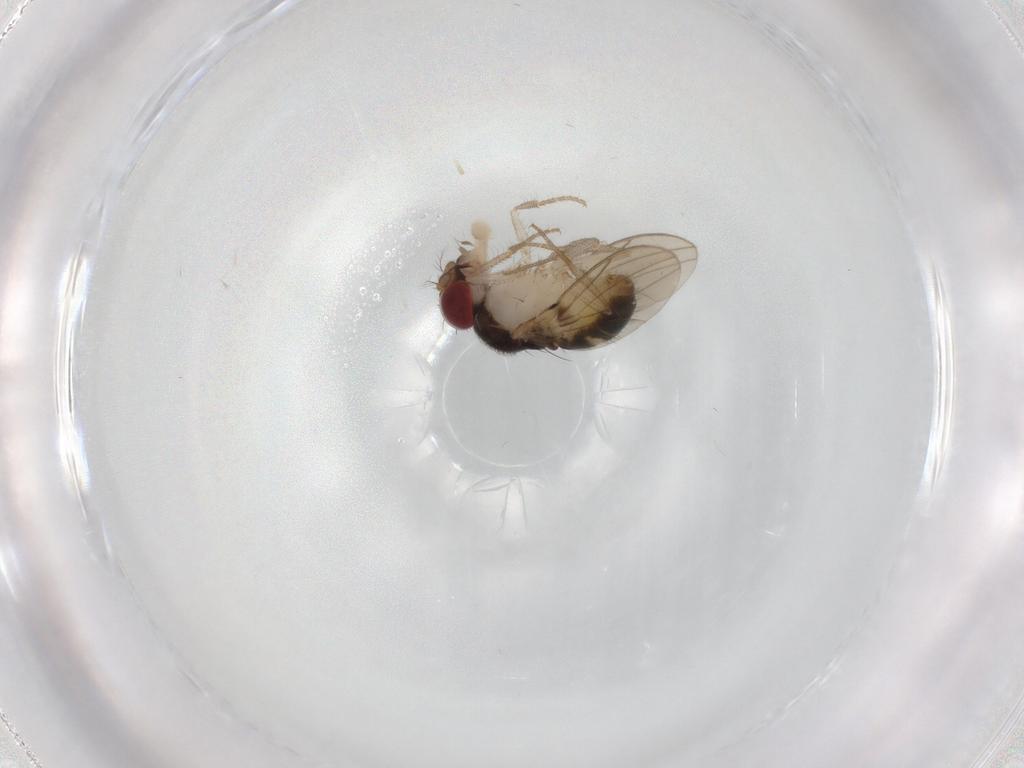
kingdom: Animalia
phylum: Arthropoda
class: Insecta
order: Diptera
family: Drosophilidae
